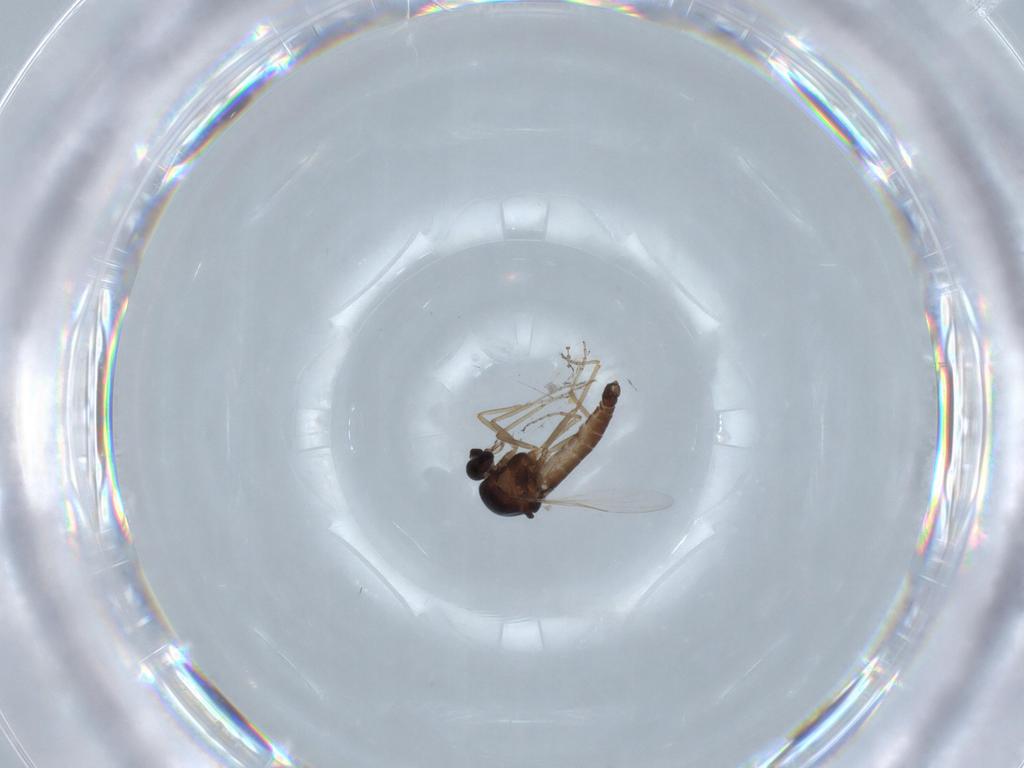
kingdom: Animalia
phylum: Arthropoda
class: Insecta
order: Diptera
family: Ceratopogonidae
